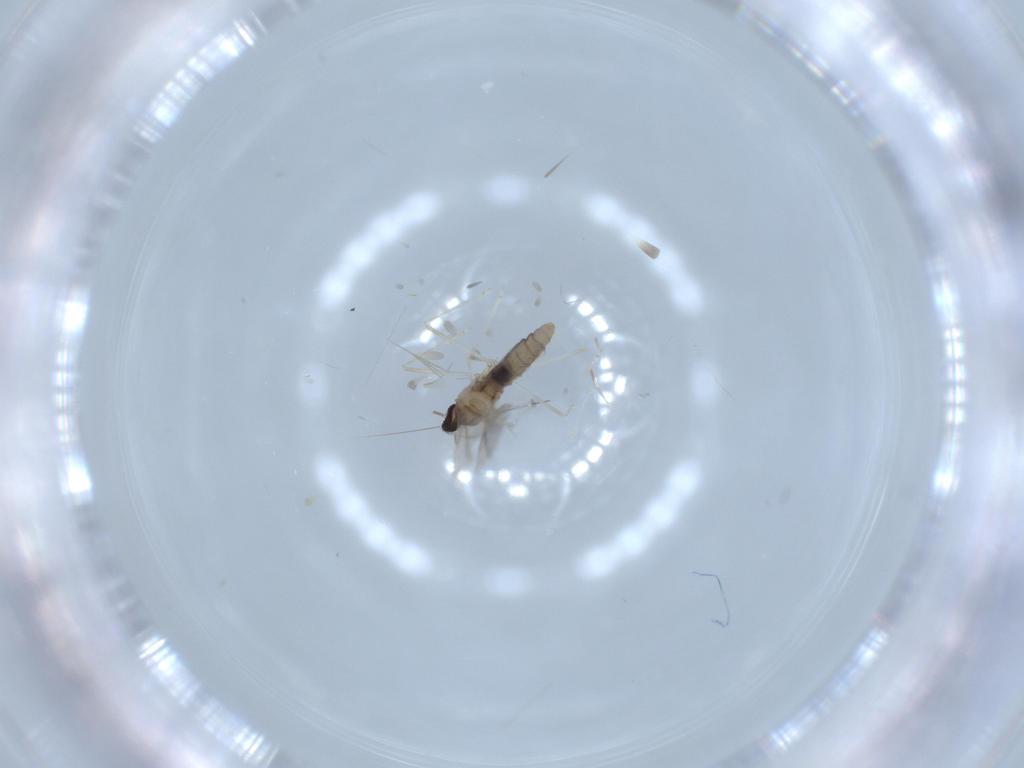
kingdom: Animalia
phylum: Arthropoda
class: Insecta
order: Diptera
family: Cecidomyiidae
